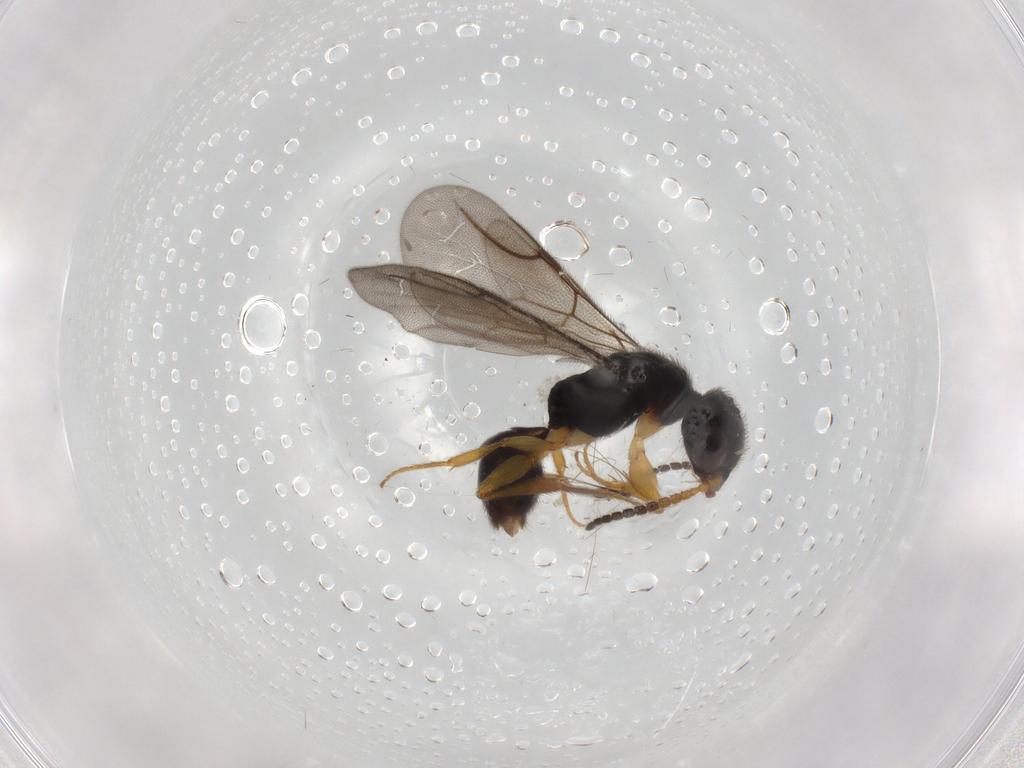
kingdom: Animalia
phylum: Arthropoda
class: Insecta
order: Hymenoptera
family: Bethylidae
